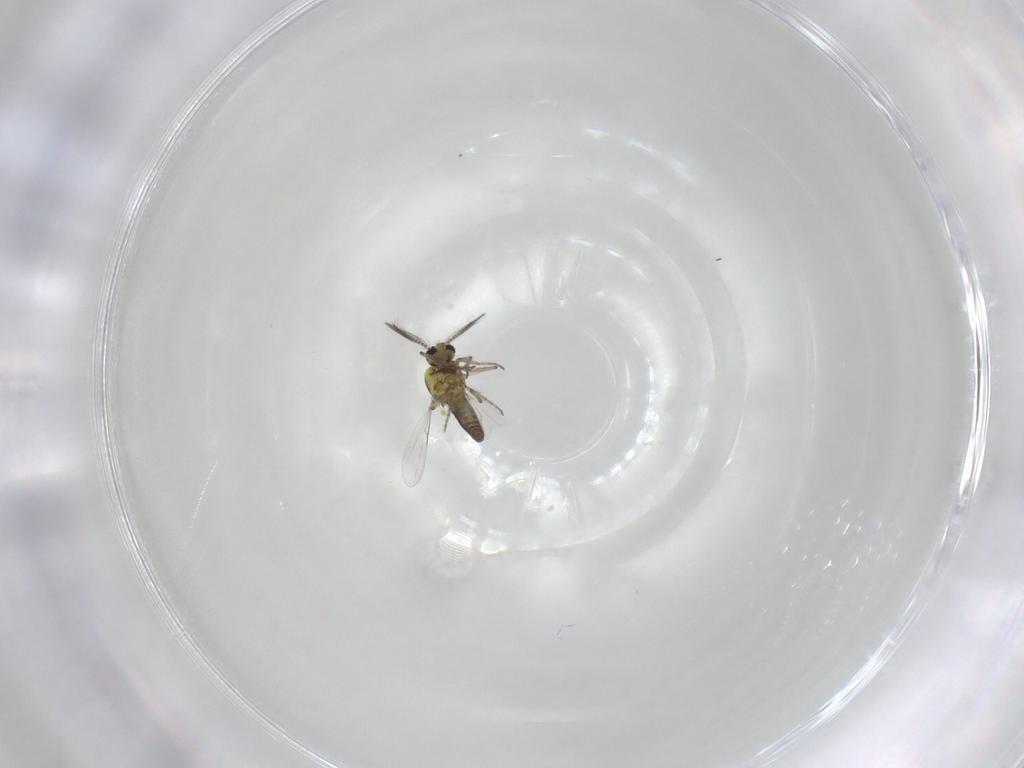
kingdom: Animalia
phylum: Arthropoda
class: Insecta
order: Diptera
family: Ceratopogonidae
